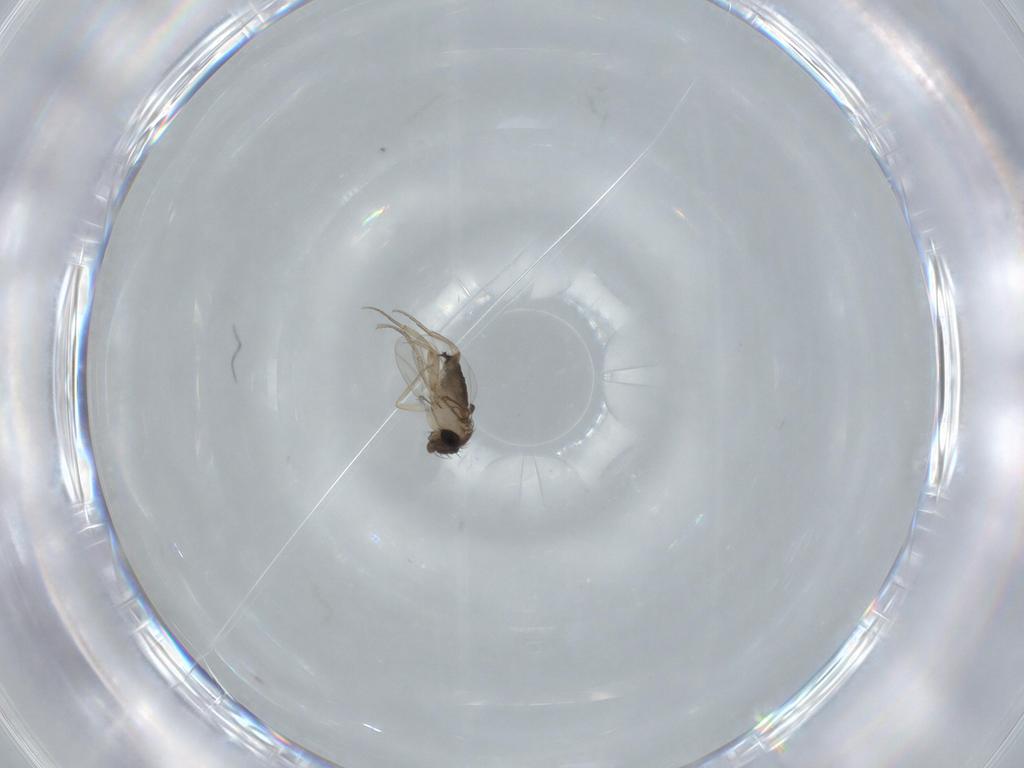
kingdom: Animalia
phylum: Arthropoda
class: Insecta
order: Diptera
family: Phoridae
